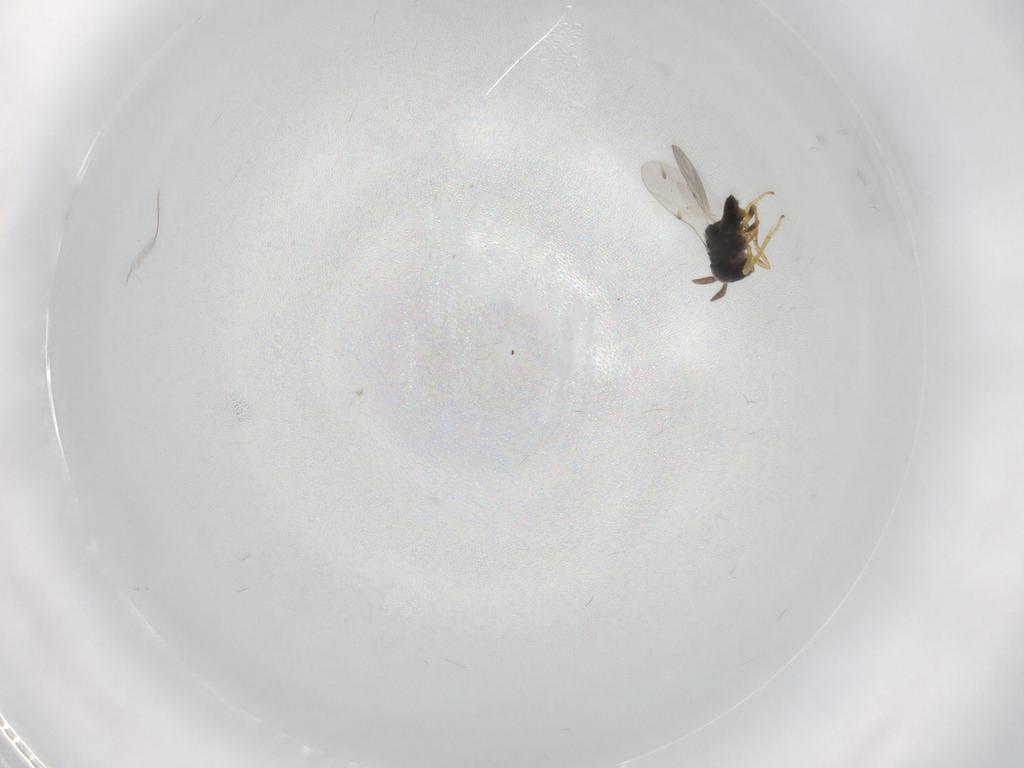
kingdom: Animalia
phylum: Arthropoda
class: Insecta
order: Hymenoptera
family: Encyrtidae
